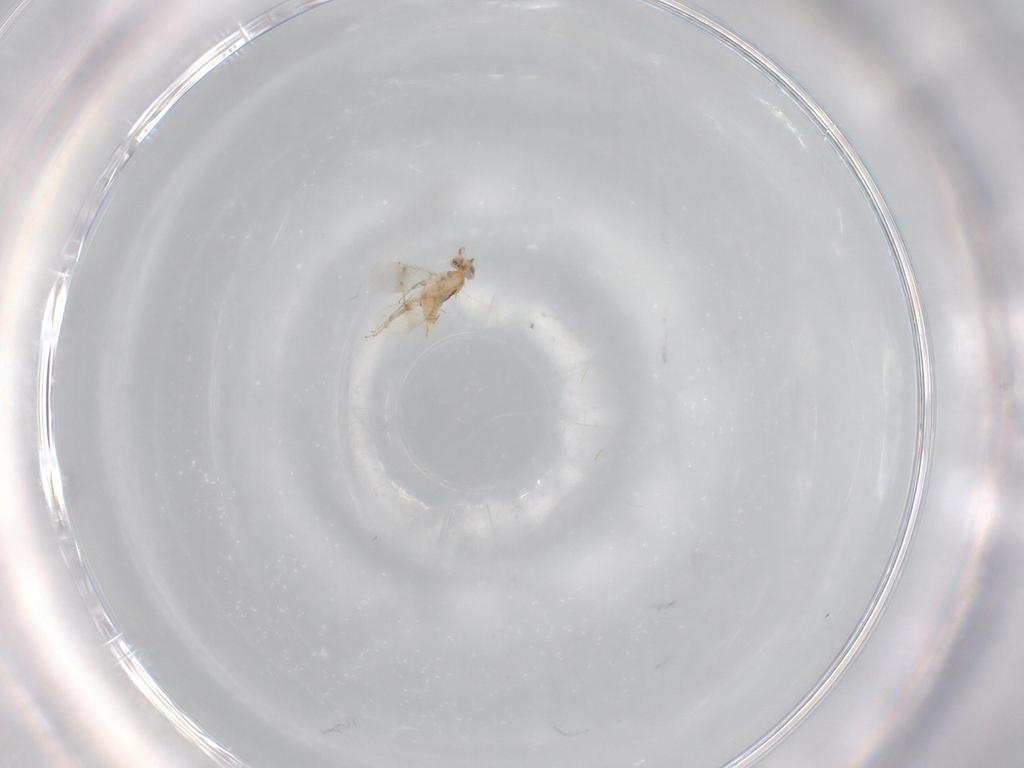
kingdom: Animalia
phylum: Arthropoda
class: Insecta
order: Hymenoptera
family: Aphelinidae
